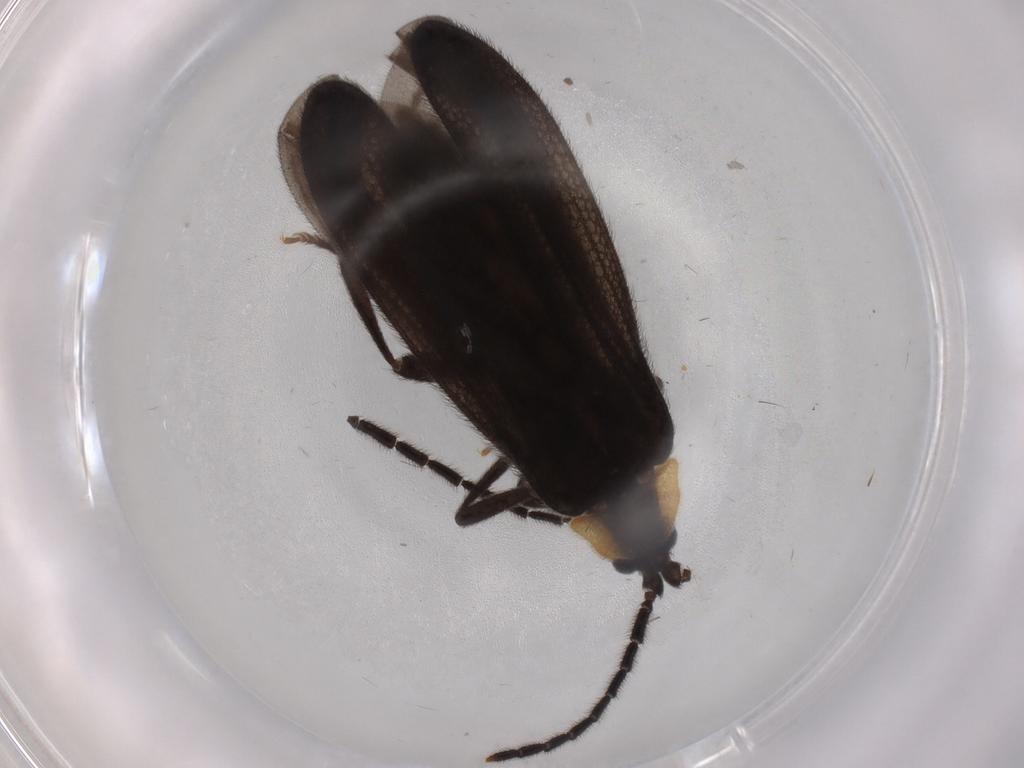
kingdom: Animalia
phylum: Arthropoda
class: Insecta
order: Coleoptera
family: Lycidae
